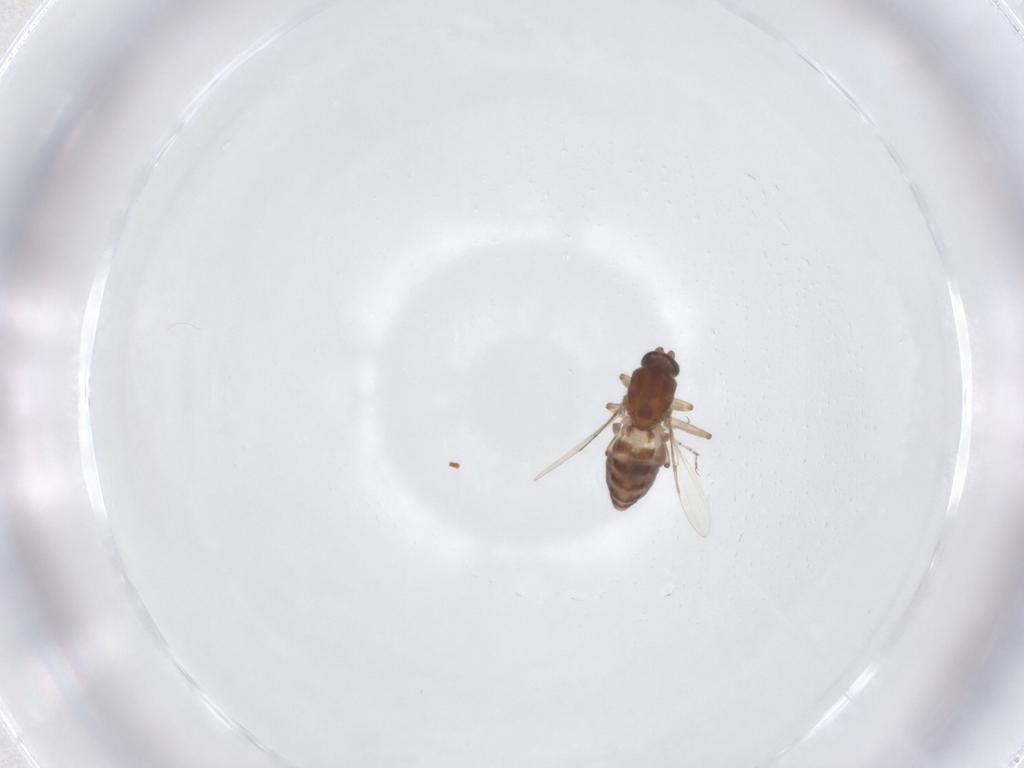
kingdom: Animalia
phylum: Arthropoda
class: Insecta
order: Diptera
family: Ceratopogonidae
